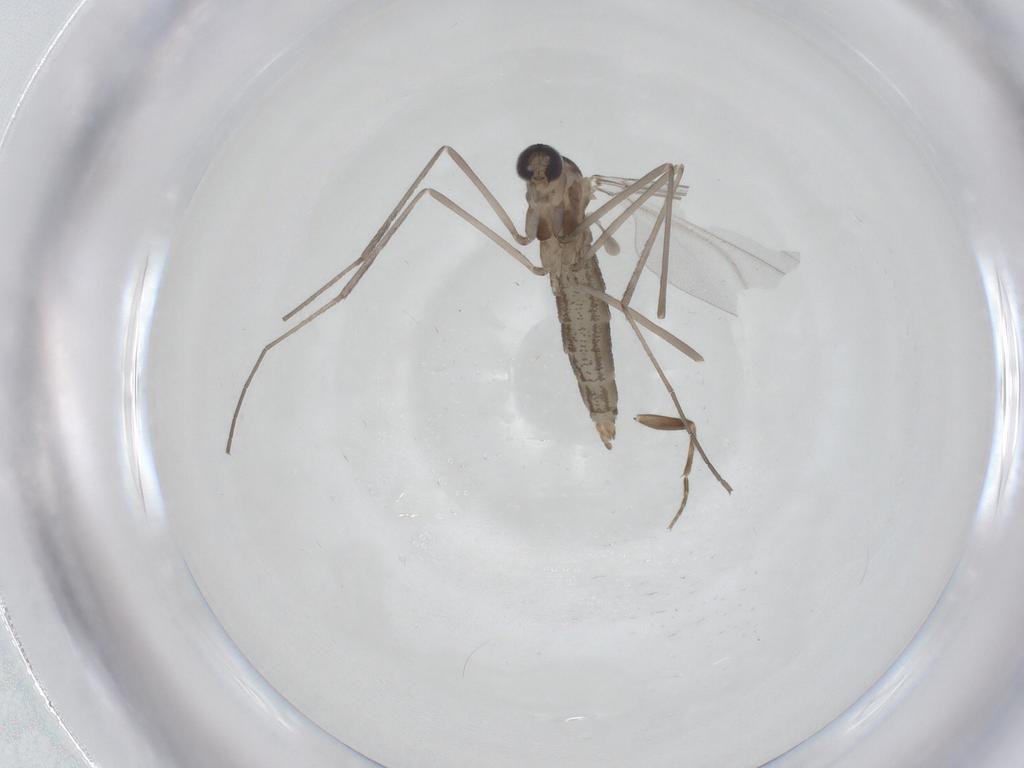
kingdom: Animalia
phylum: Arthropoda
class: Insecta
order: Diptera
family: Cecidomyiidae
